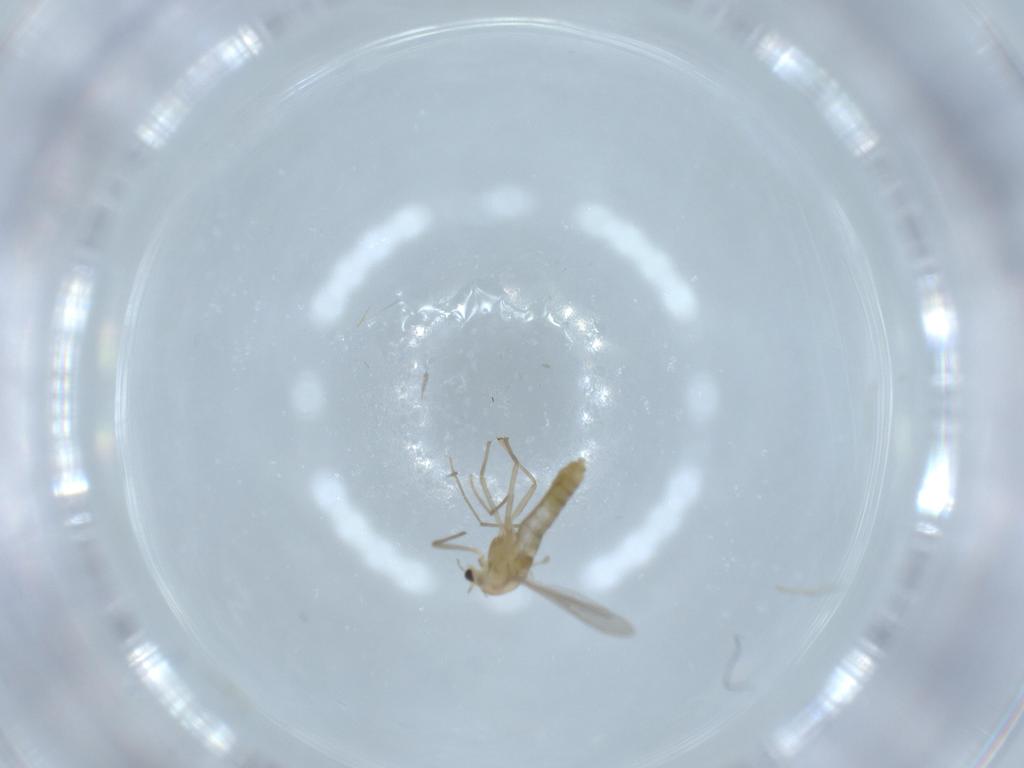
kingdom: Animalia
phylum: Arthropoda
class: Insecta
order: Diptera
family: Chironomidae
